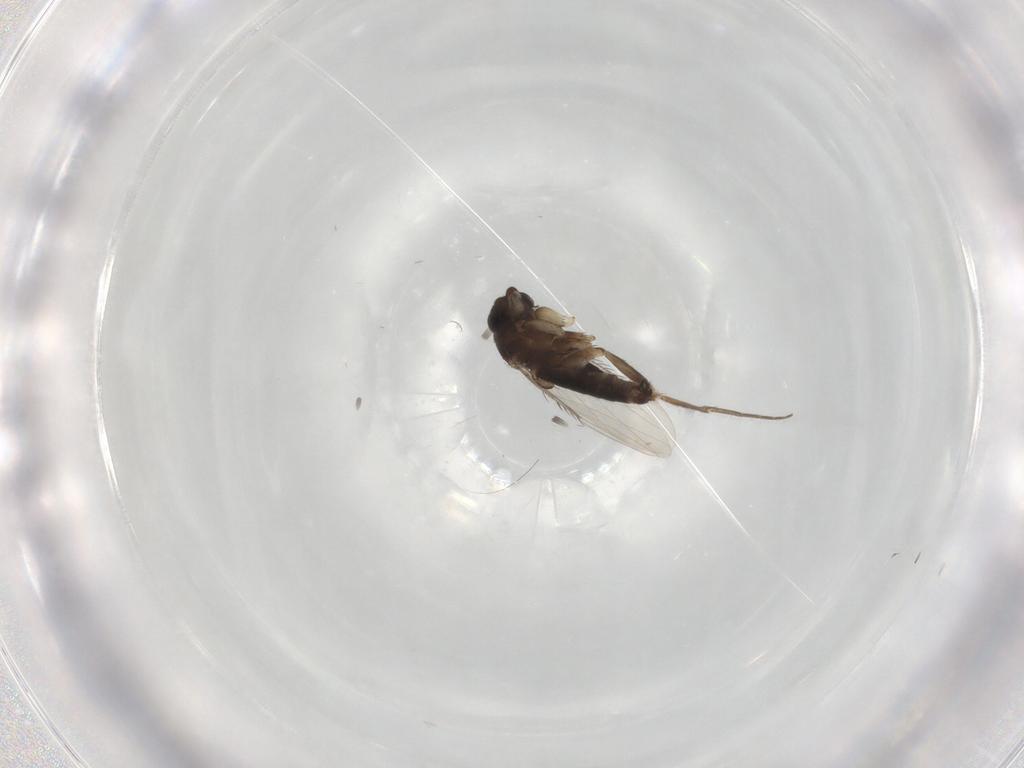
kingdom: Animalia
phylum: Arthropoda
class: Insecta
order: Diptera
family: Phoridae
